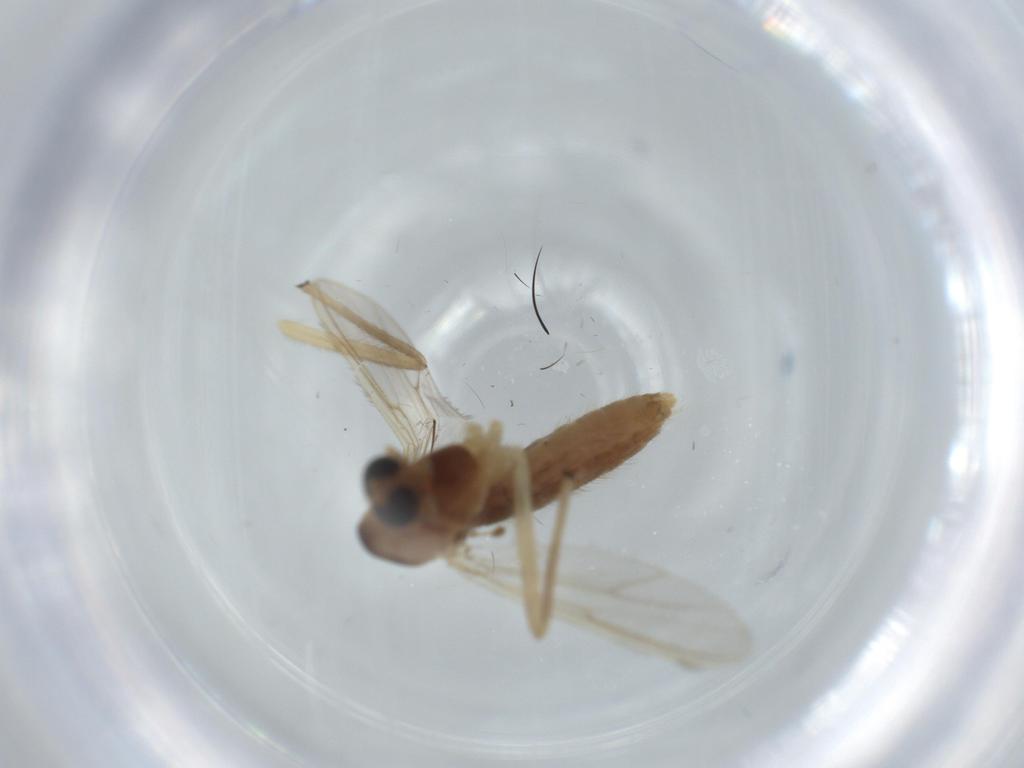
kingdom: Animalia
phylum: Arthropoda
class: Insecta
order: Diptera
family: Chironomidae
